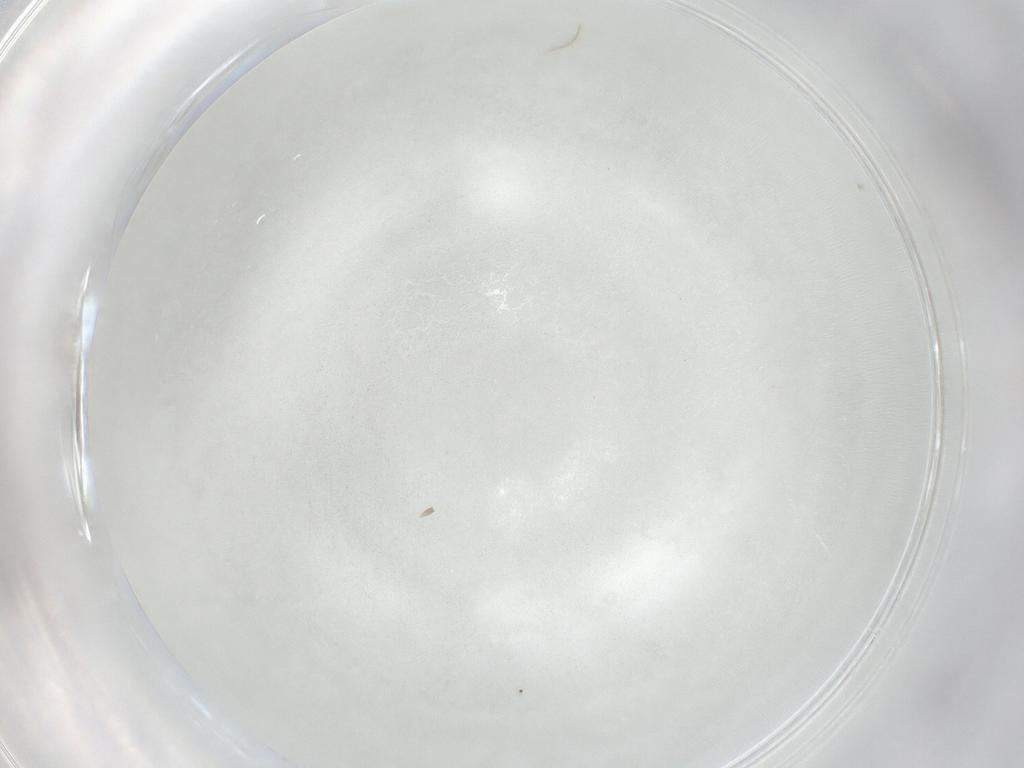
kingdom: Animalia
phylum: Arthropoda
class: Insecta
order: Diptera
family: Cecidomyiidae
